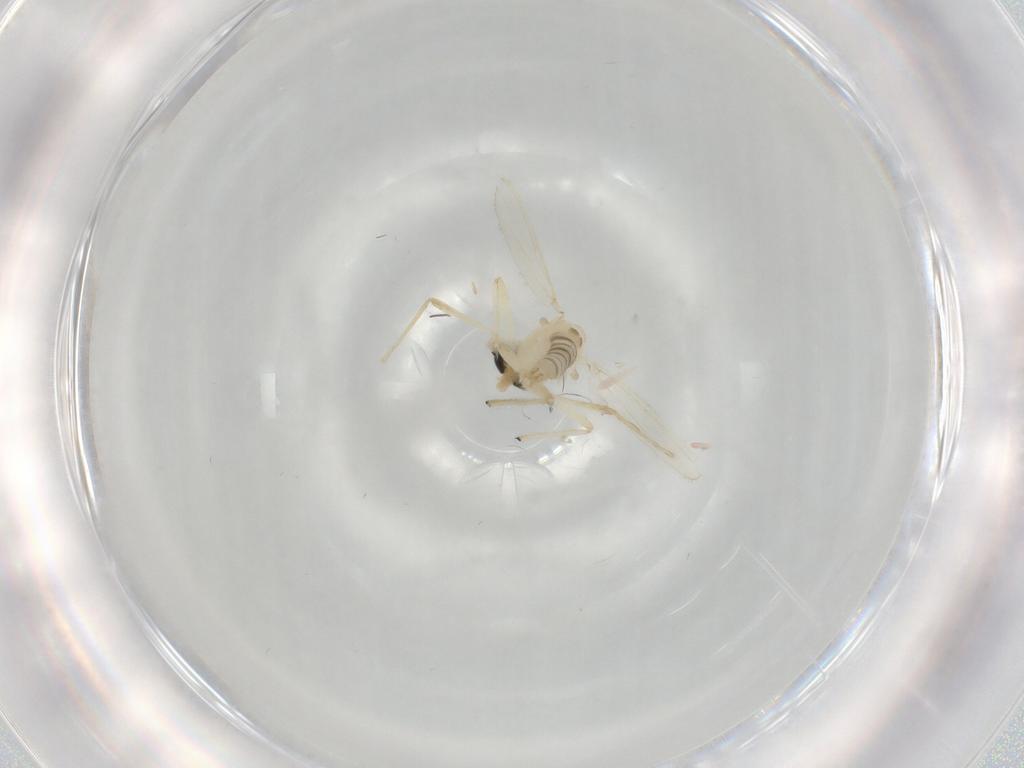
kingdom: Animalia
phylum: Arthropoda
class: Insecta
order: Diptera
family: Chironomidae
